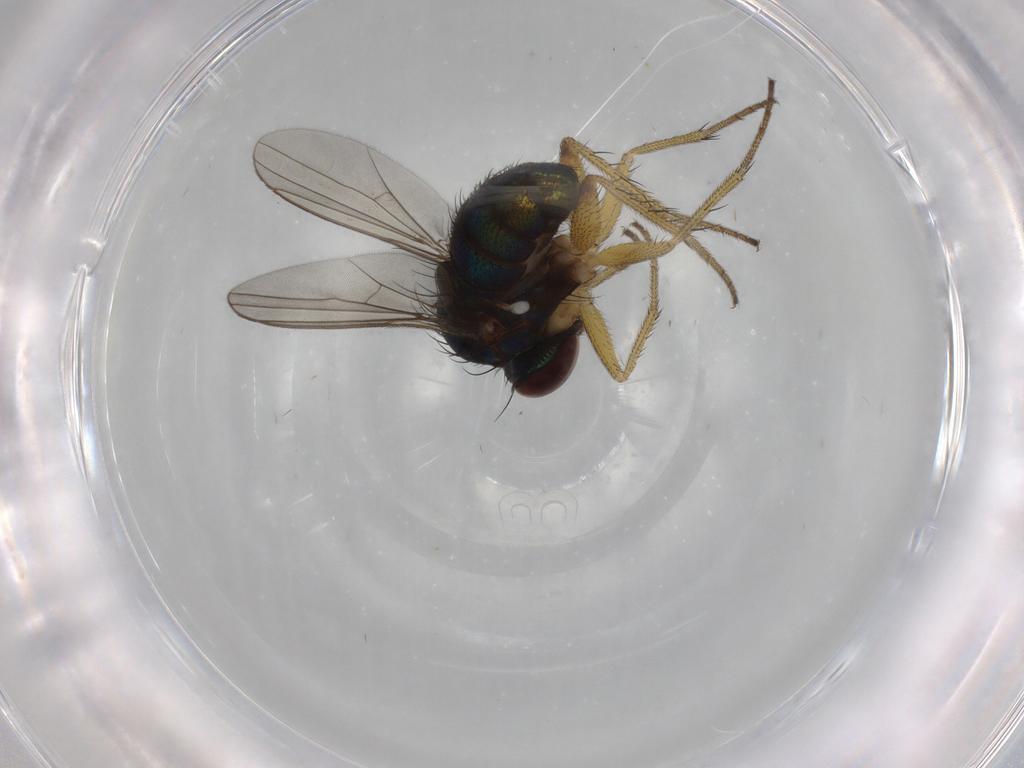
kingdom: Animalia
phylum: Arthropoda
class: Insecta
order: Diptera
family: Dolichopodidae
